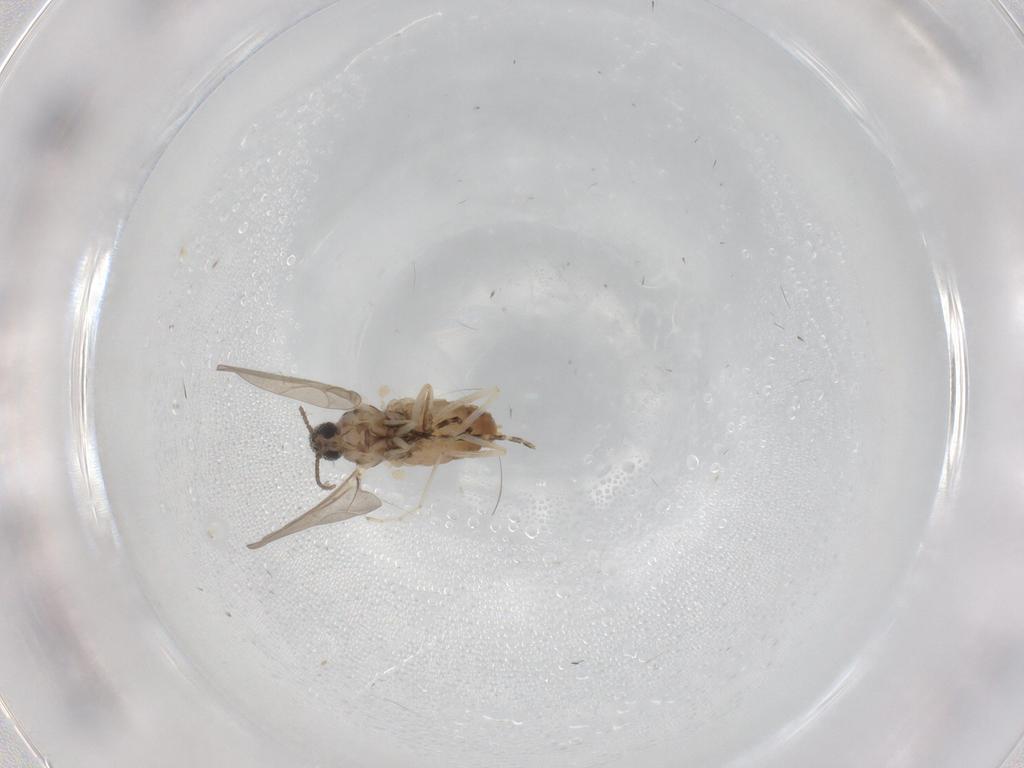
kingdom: Animalia
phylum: Arthropoda
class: Insecta
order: Diptera
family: Cecidomyiidae
